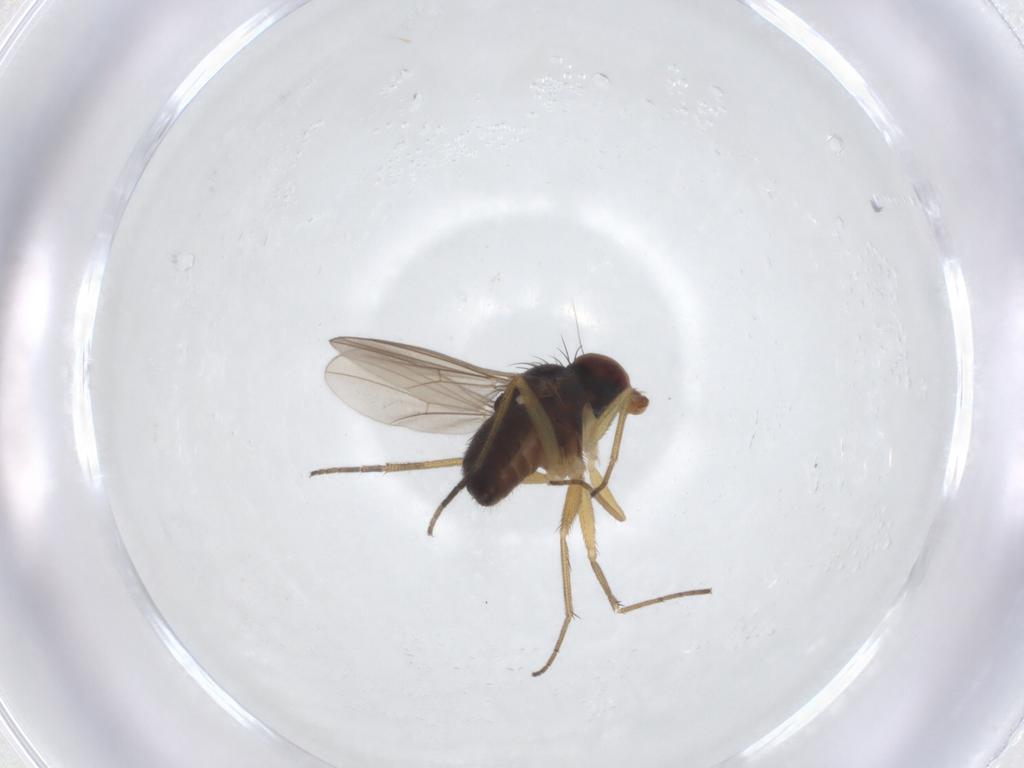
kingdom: Animalia
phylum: Arthropoda
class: Insecta
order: Diptera
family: Dolichopodidae
